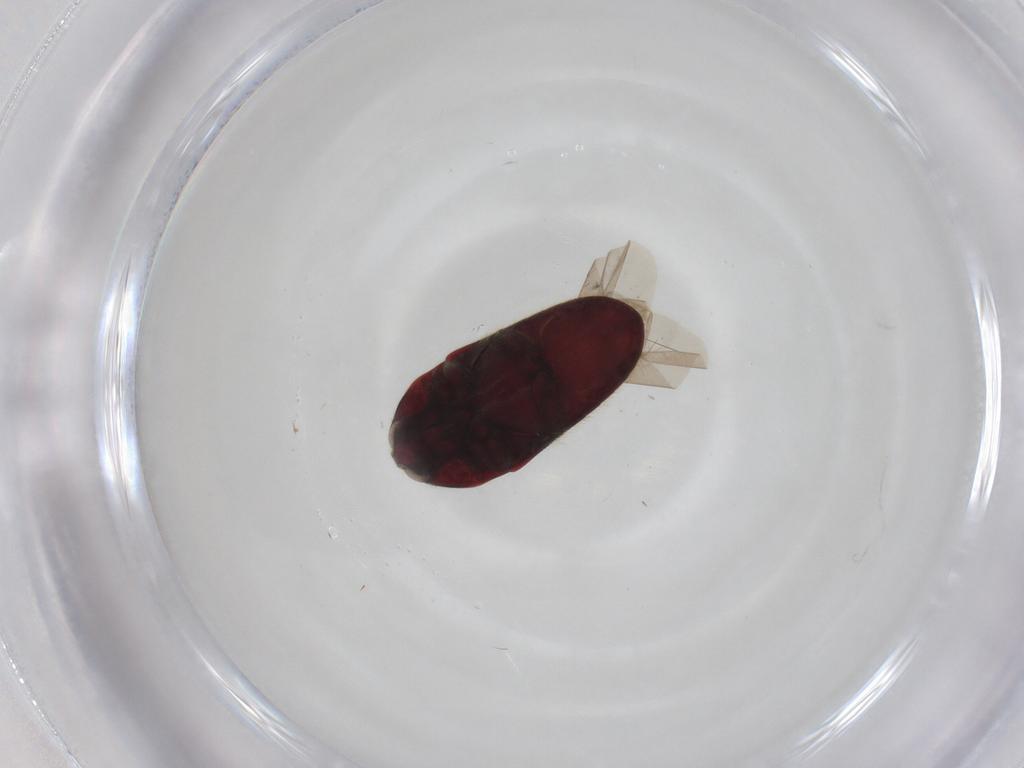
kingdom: Animalia
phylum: Arthropoda
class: Insecta
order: Coleoptera
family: Throscidae
